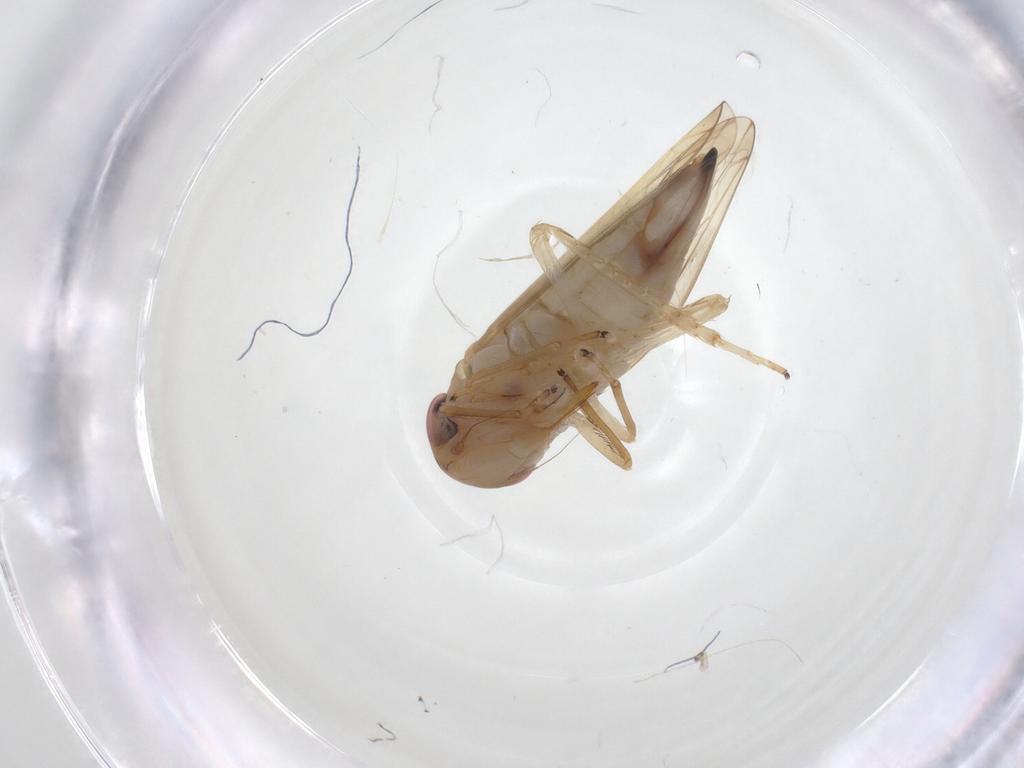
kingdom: Animalia
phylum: Arthropoda
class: Insecta
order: Hemiptera
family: Cicadellidae
